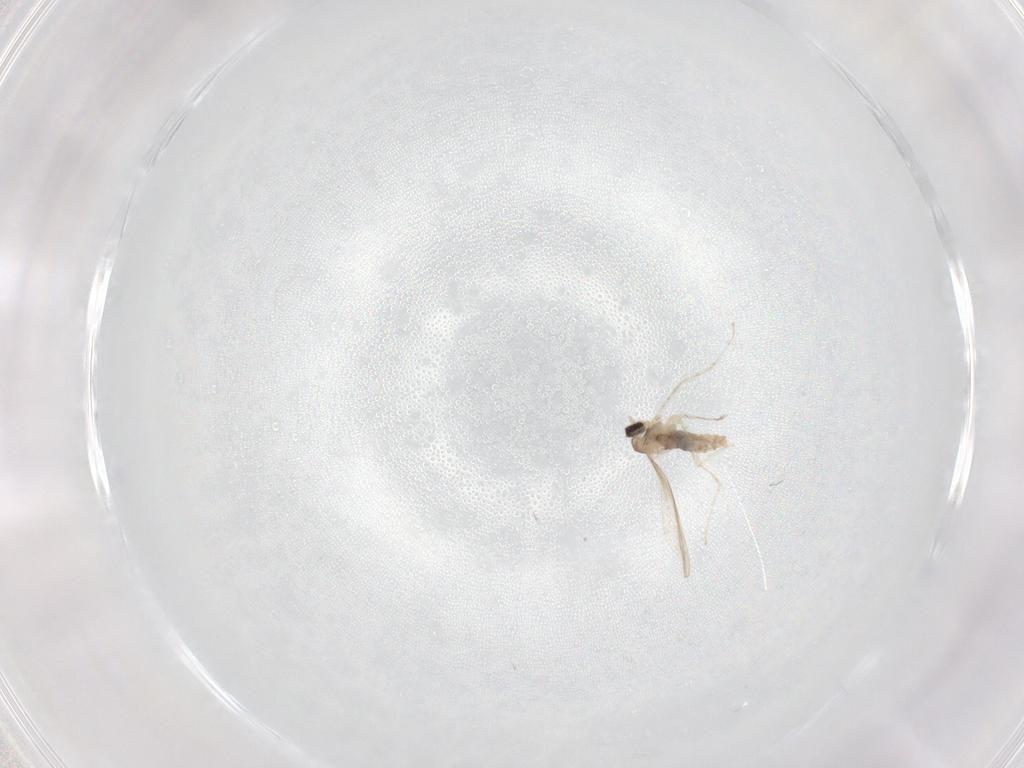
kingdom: Animalia
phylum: Arthropoda
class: Insecta
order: Diptera
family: Cecidomyiidae
